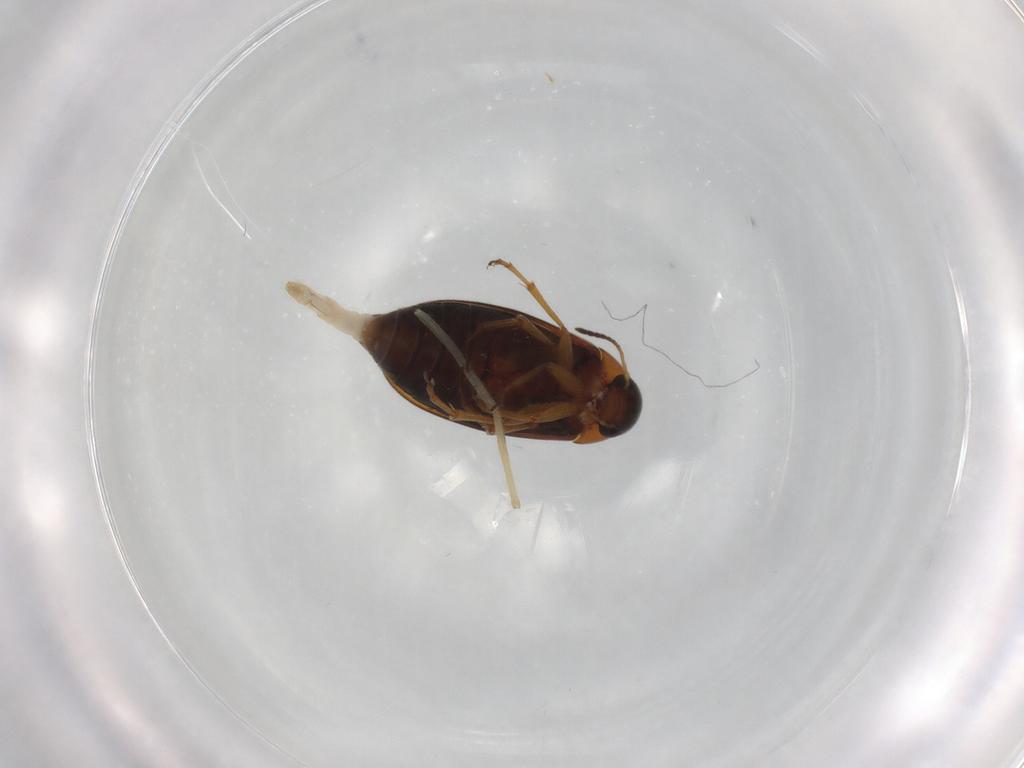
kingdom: Animalia
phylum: Arthropoda
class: Insecta
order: Coleoptera
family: Scraptiidae
